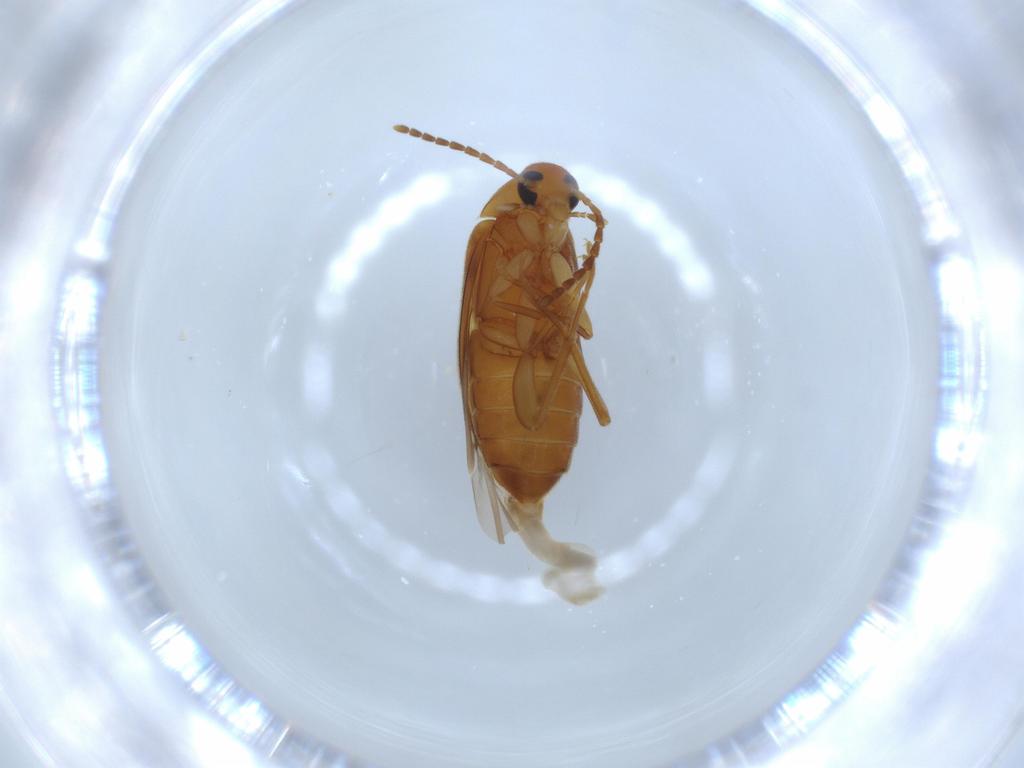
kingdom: Animalia
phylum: Arthropoda
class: Insecta
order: Coleoptera
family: Scraptiidae
